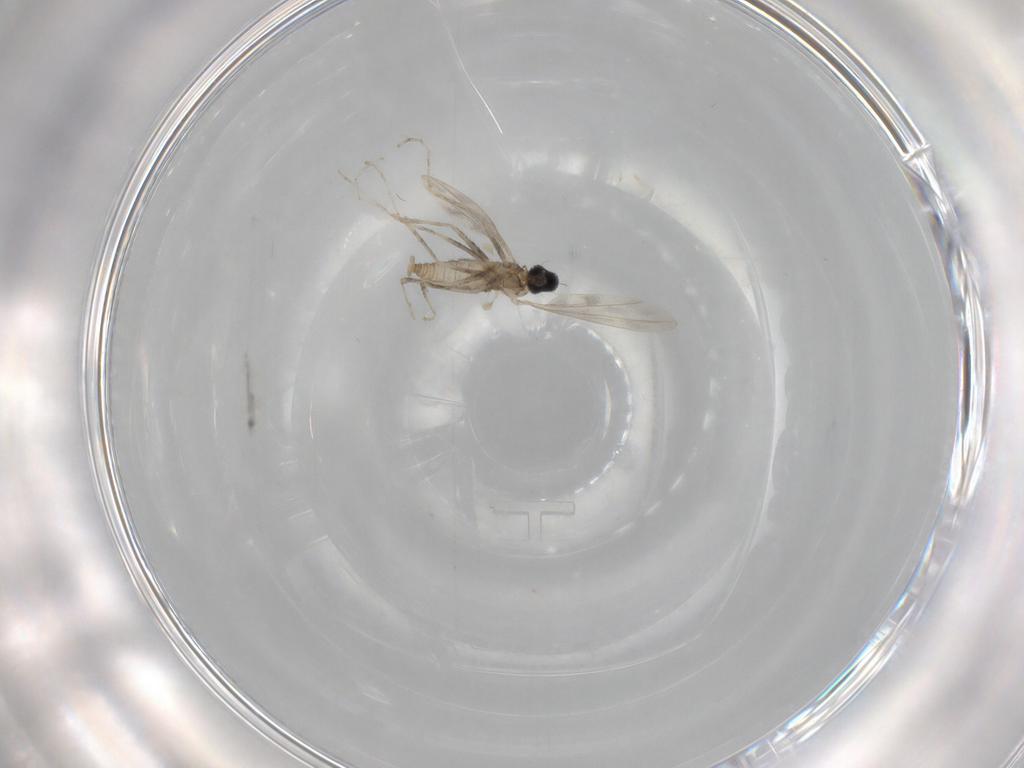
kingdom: Animalia
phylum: Arthropoda
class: Insecta
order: Diptera
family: Cecidomyiidae
